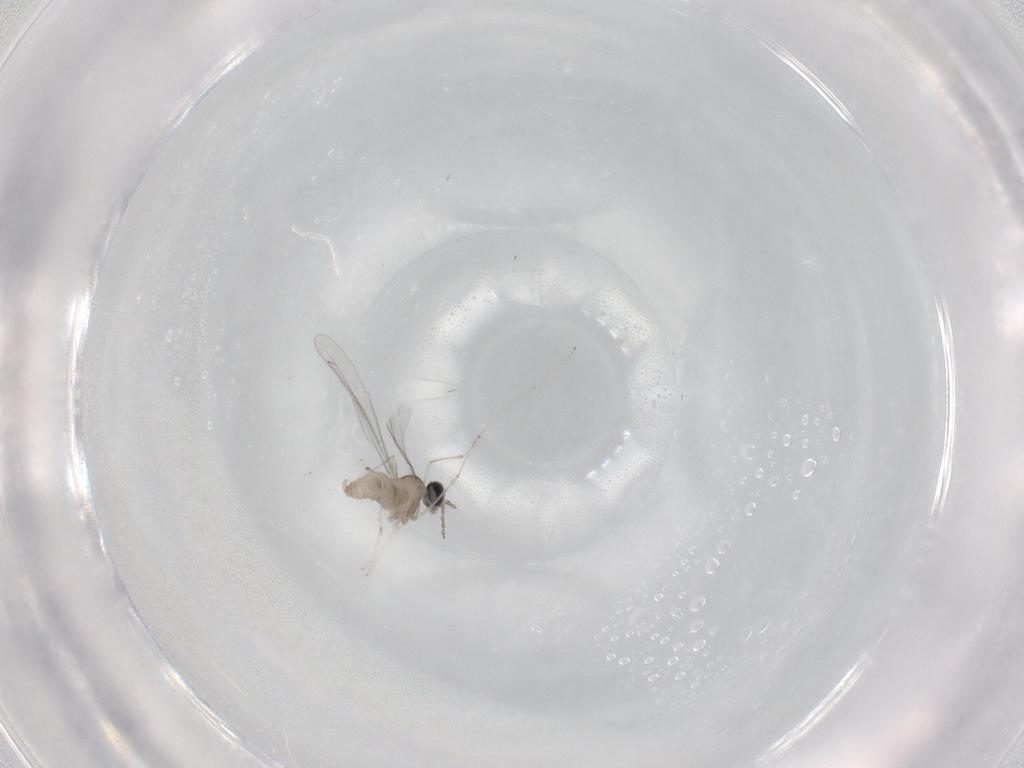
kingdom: Animalia
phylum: Arthropoda
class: Insecta
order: Diptera
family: Cecidomyiidae
